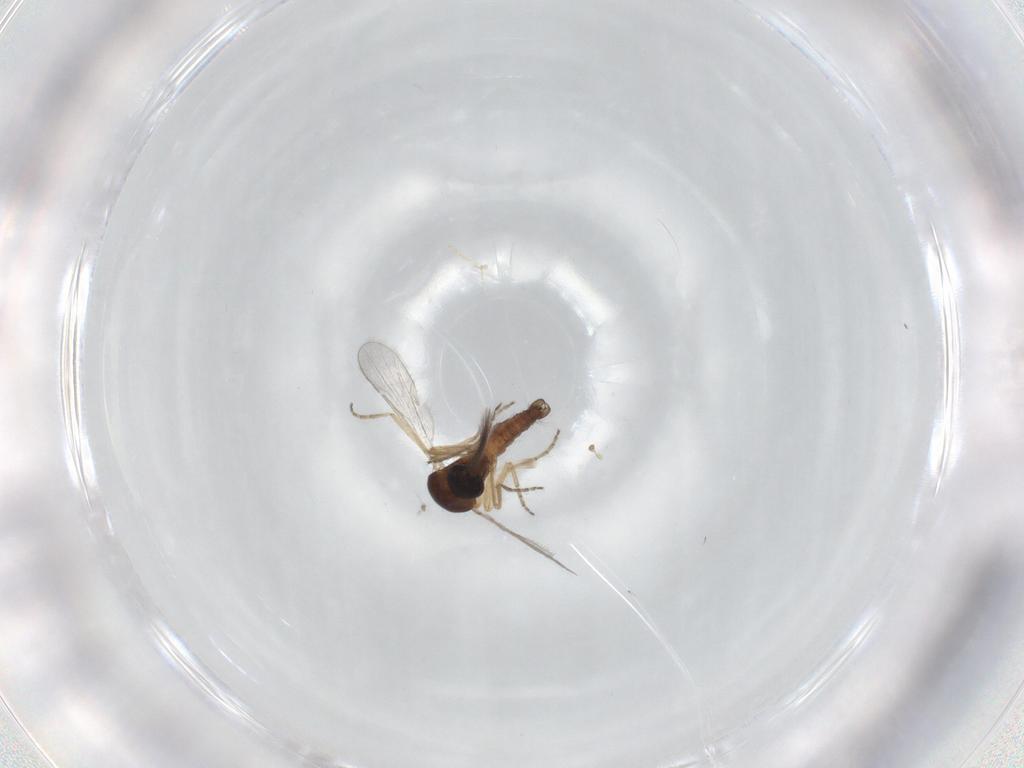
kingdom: Animalia
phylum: Arthropoda
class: Insecta
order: Diptera
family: Ceratopogonidae
